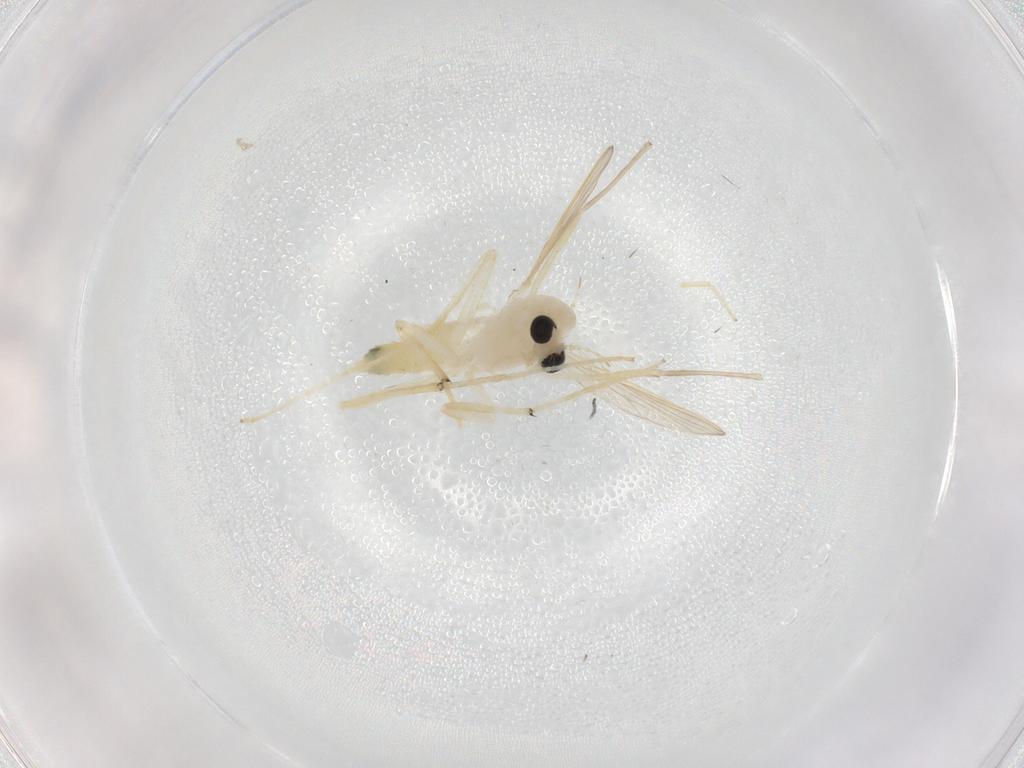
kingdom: Animalia
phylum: Arthropoda
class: Insecta
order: Diptera
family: Chironomidae
